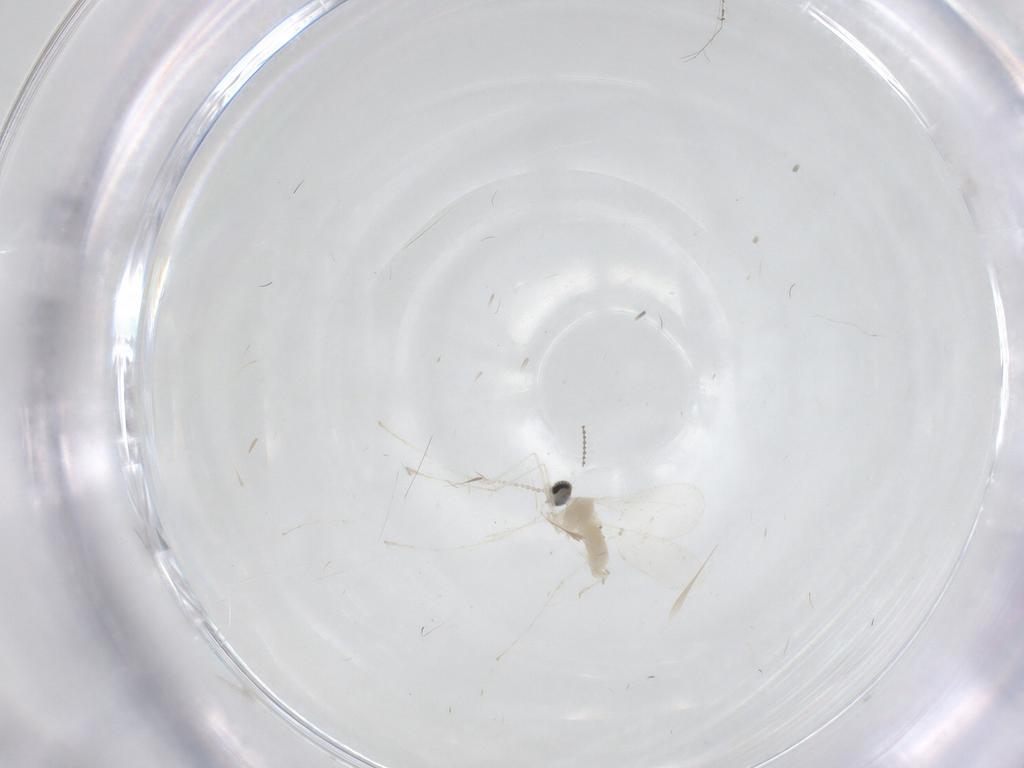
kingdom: Animalia
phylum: Arthropoda
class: Insecta
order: Diptera
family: Cecidomyiidae
